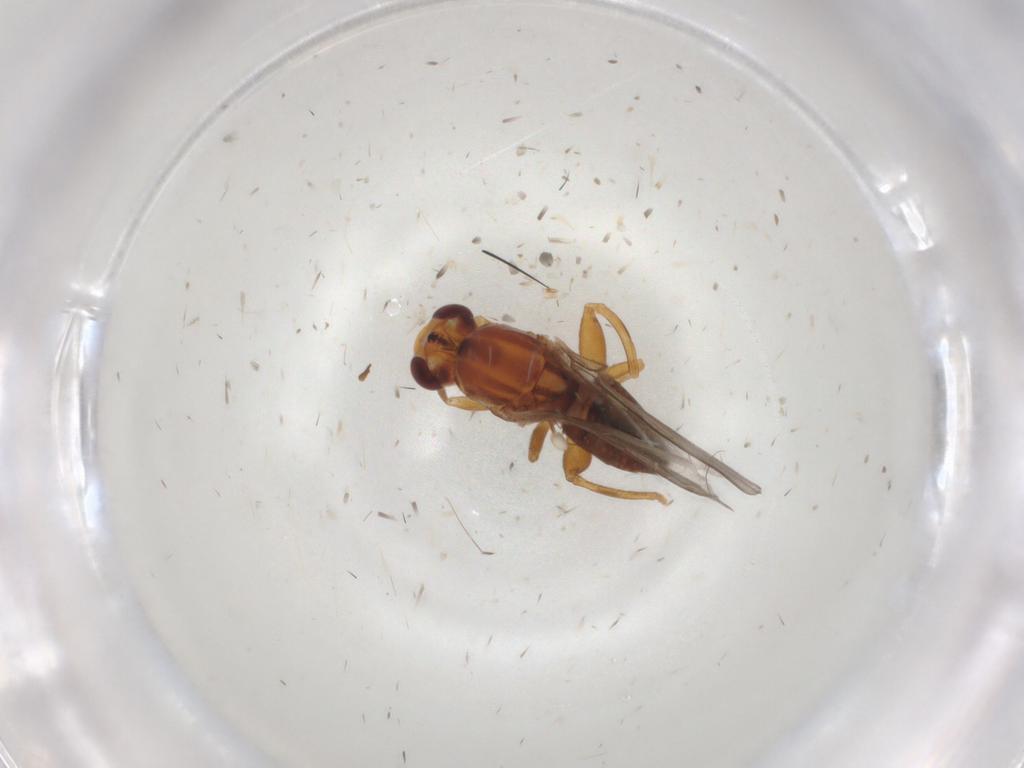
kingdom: Animalia
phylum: Arthropoda
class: Insecta
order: Diptera
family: Chloropidae
